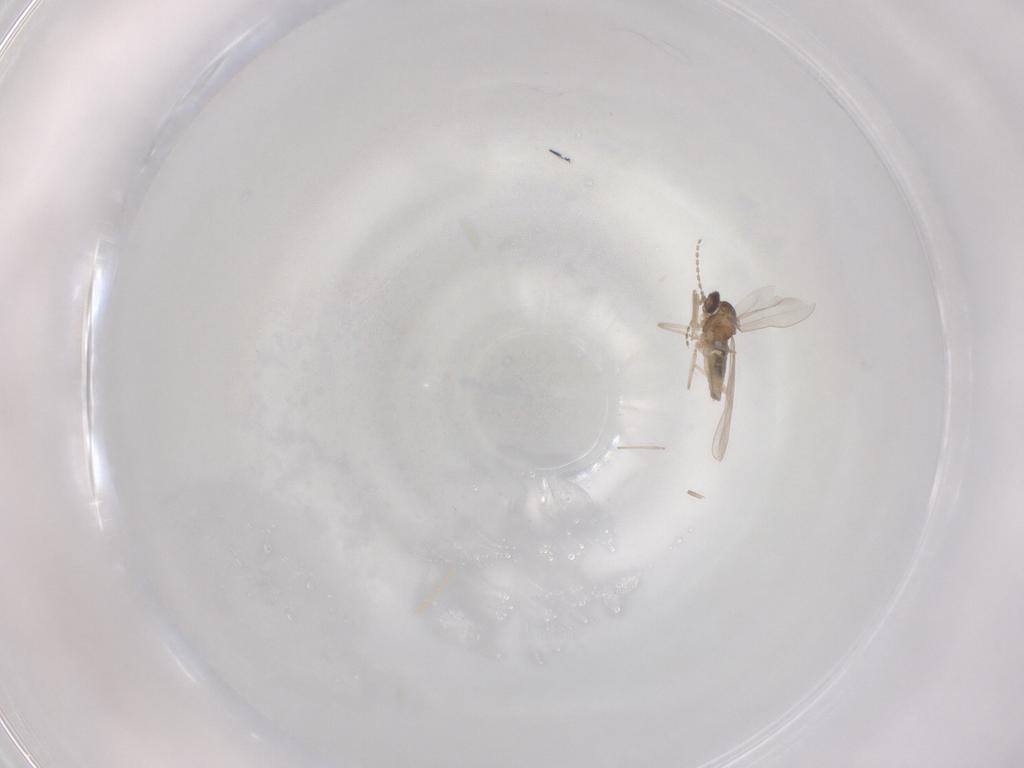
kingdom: Animalia
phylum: Arthropoda
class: Insecta
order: Diptera
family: Cecidomyiidae
